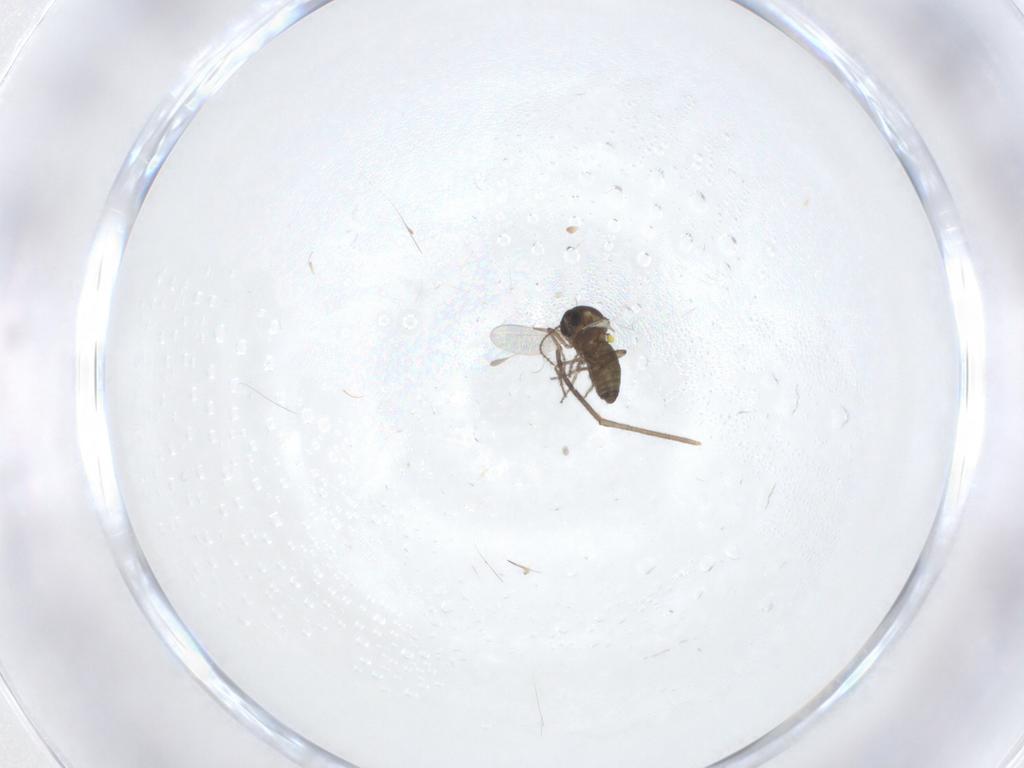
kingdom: Animalia
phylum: Arthropoda
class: Insecta
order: Diptera
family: Ceratopogonidae
